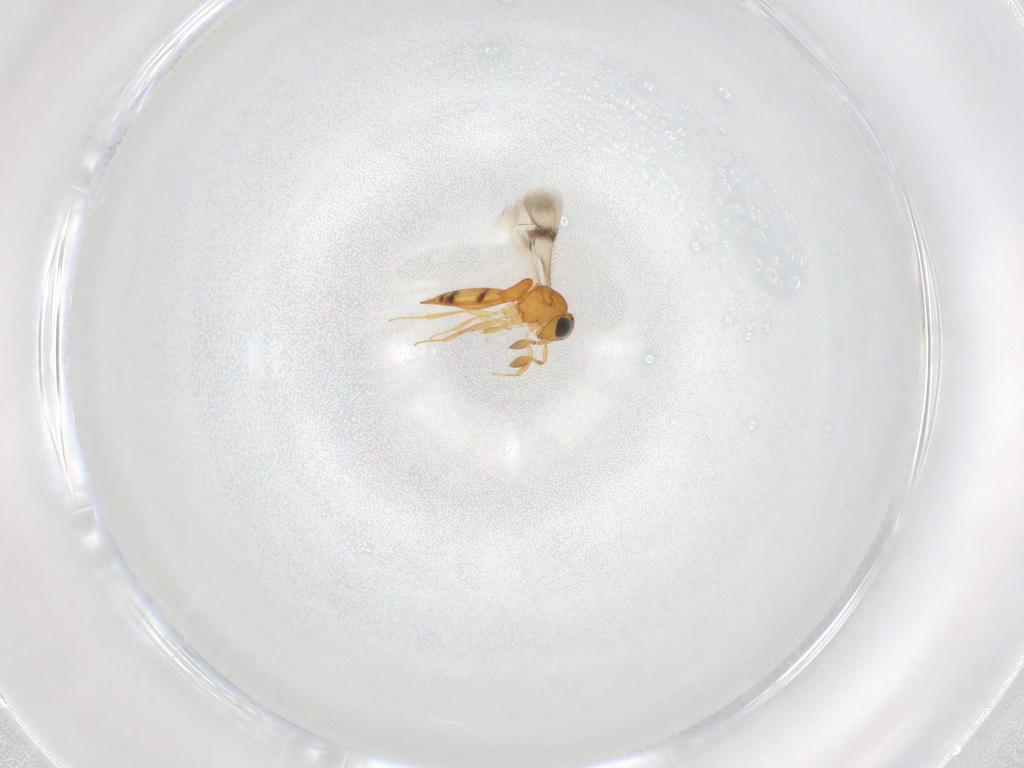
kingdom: Animalia
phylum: Arthropoda
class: Insecta
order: Hymenoptera
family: Scelionidae
